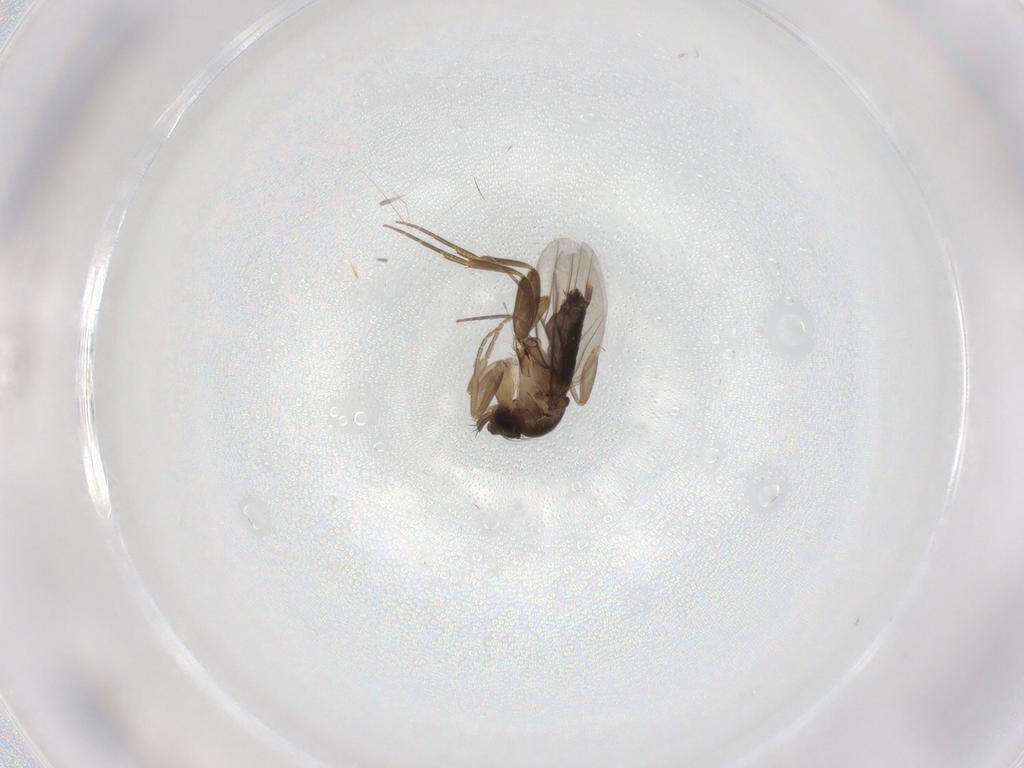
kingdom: Animalia
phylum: Arthropoda
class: Insecta
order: Diptera
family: Phoridae
